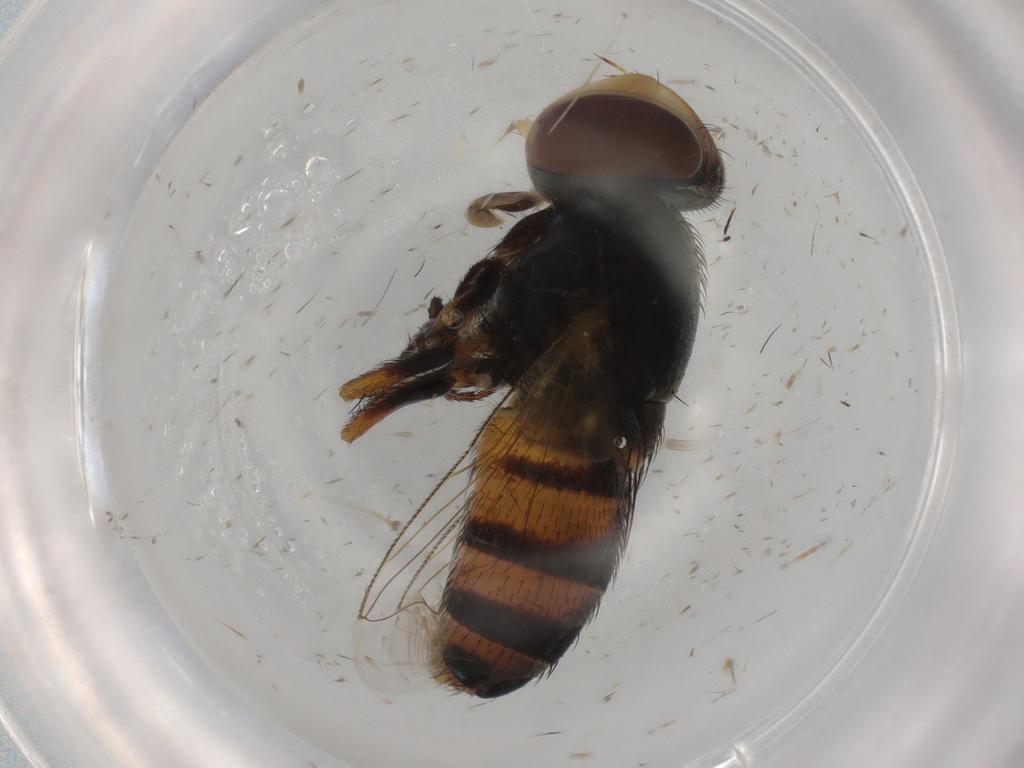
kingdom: Animalia
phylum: Arthropoda
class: Insecta
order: Diptera
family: Dolichopodidae
